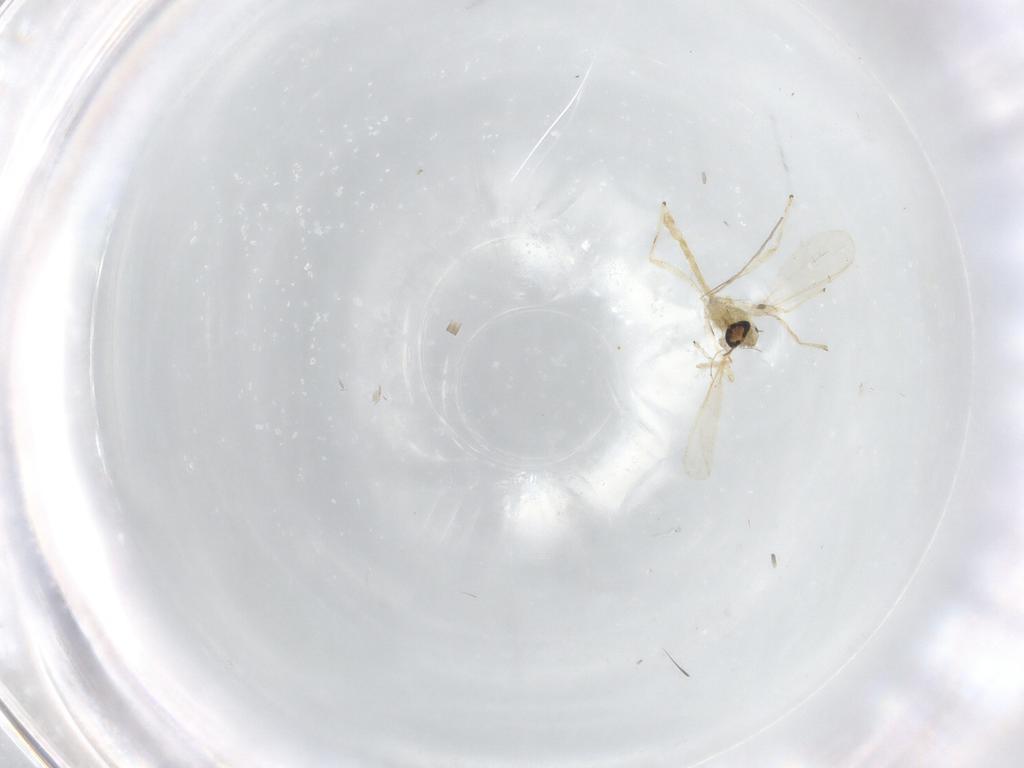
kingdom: Animalia
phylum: Arthropoda
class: Insecta
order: Diptera
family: Chironomidae
